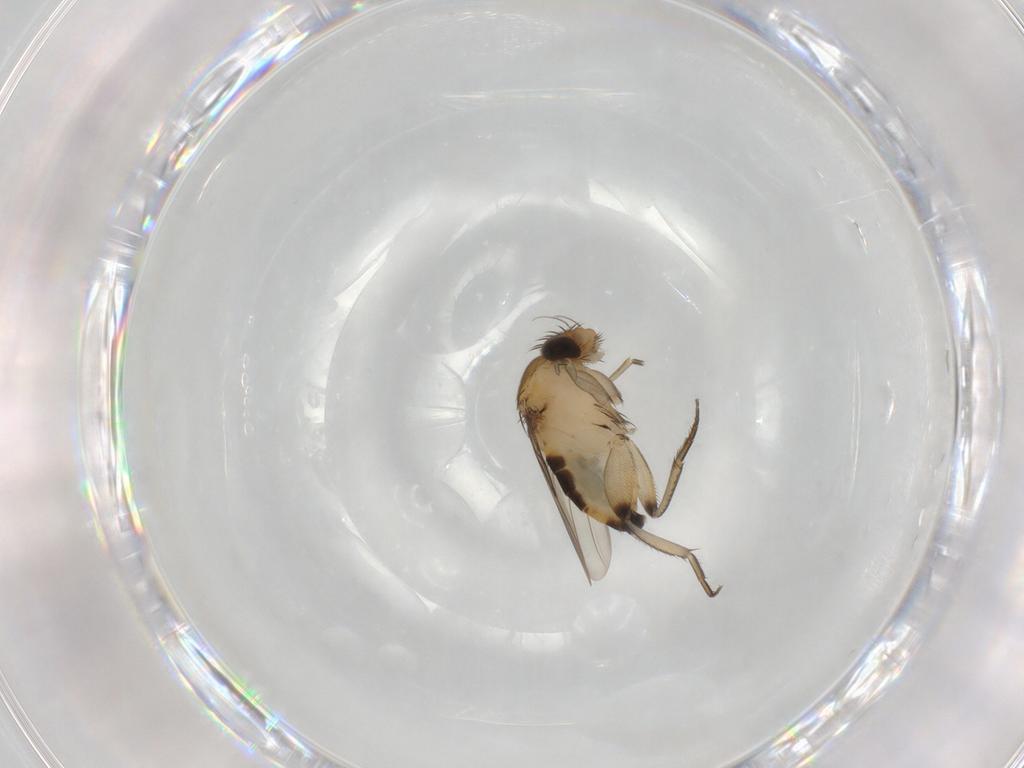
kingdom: Animalia
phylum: Arthropoda
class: Insecta
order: Diptera
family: Phoridae
